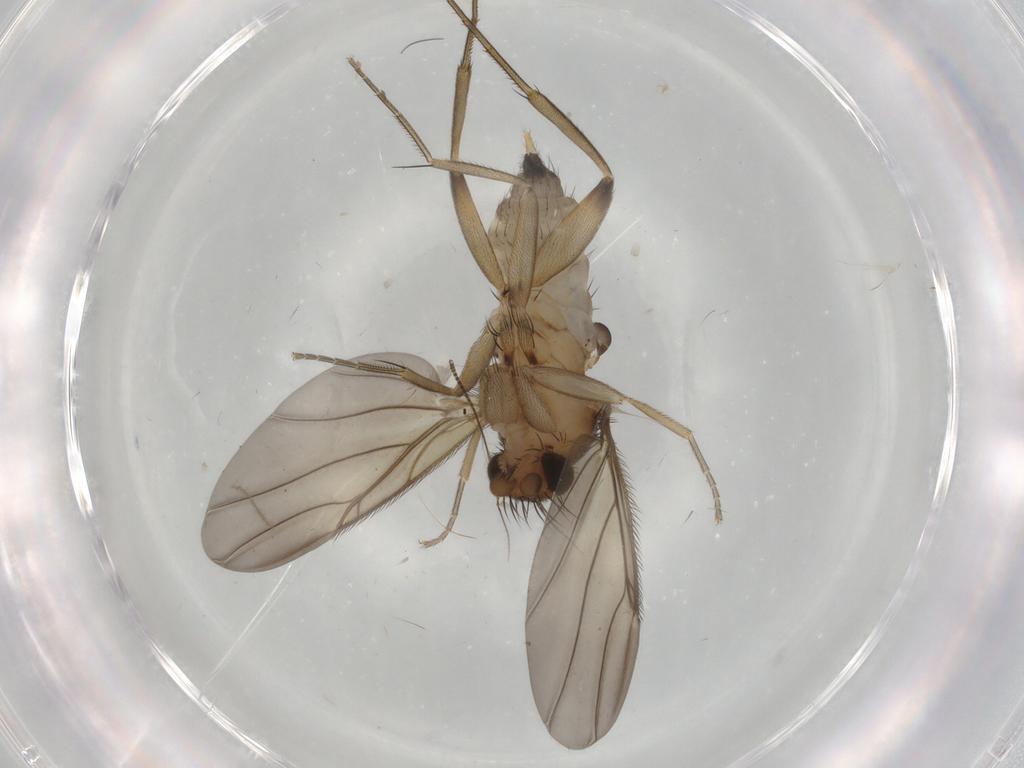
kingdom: Animalia
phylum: Arthropoda
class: Insecta
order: Diptera
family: Phoridae
